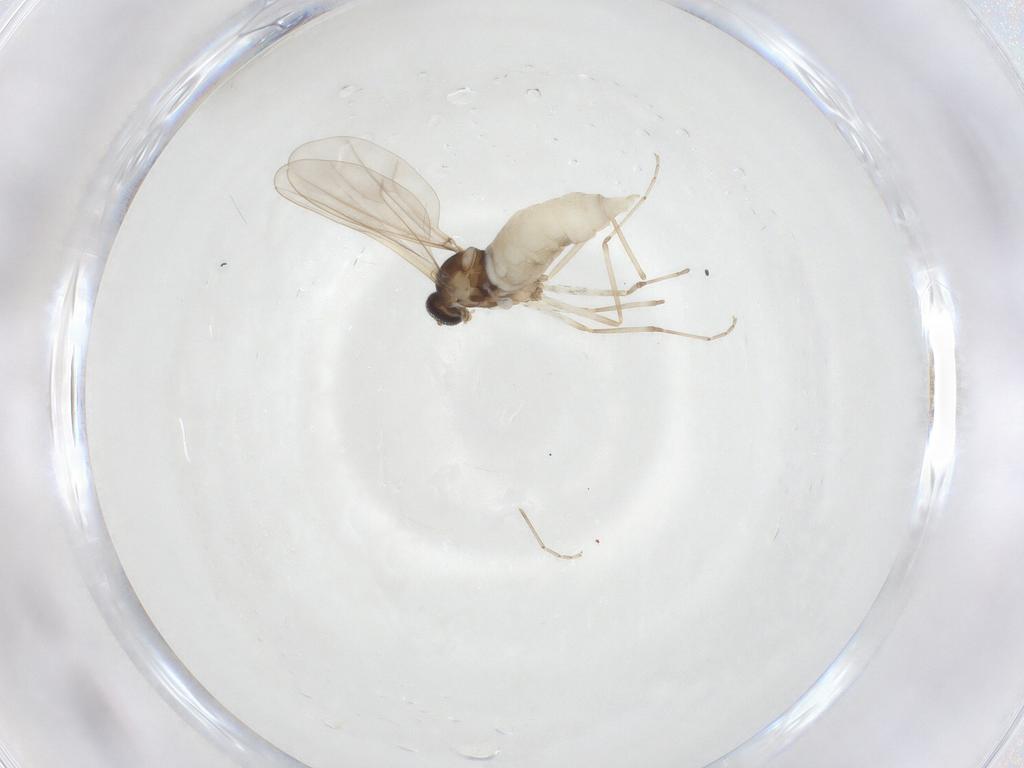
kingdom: Animalia
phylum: Arthropoda
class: Insecta
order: Diptera
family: Cecidomyiidae
